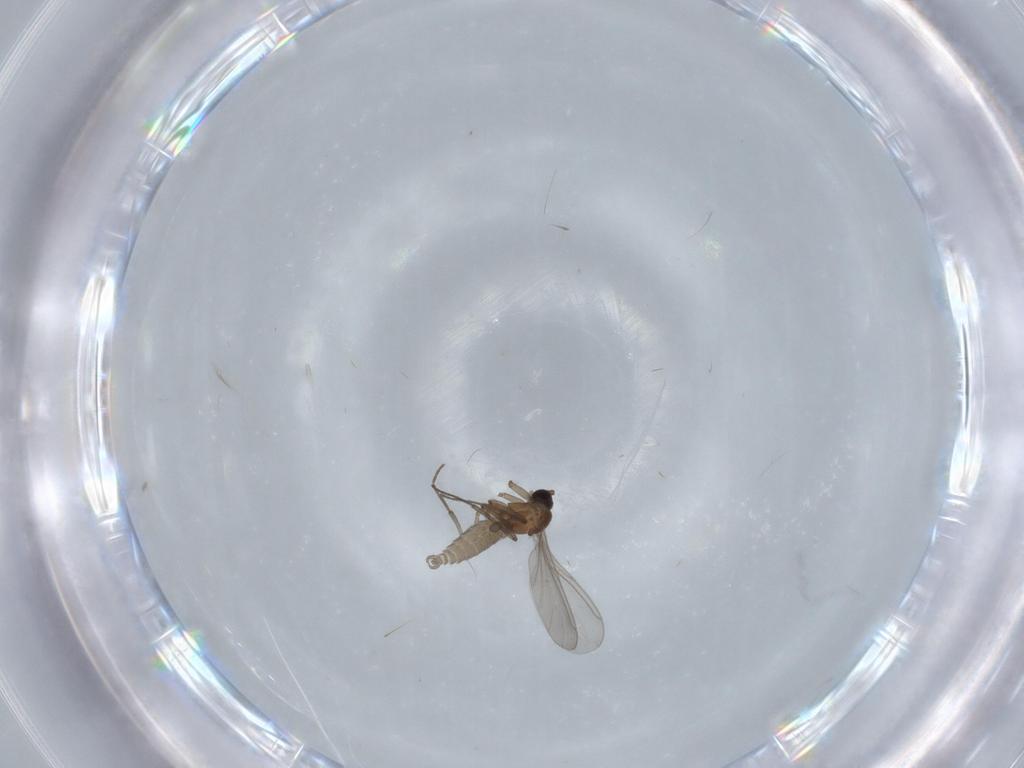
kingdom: Animalia
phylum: Arthropoda
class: Insecta
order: Diptera
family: Sciaridae
